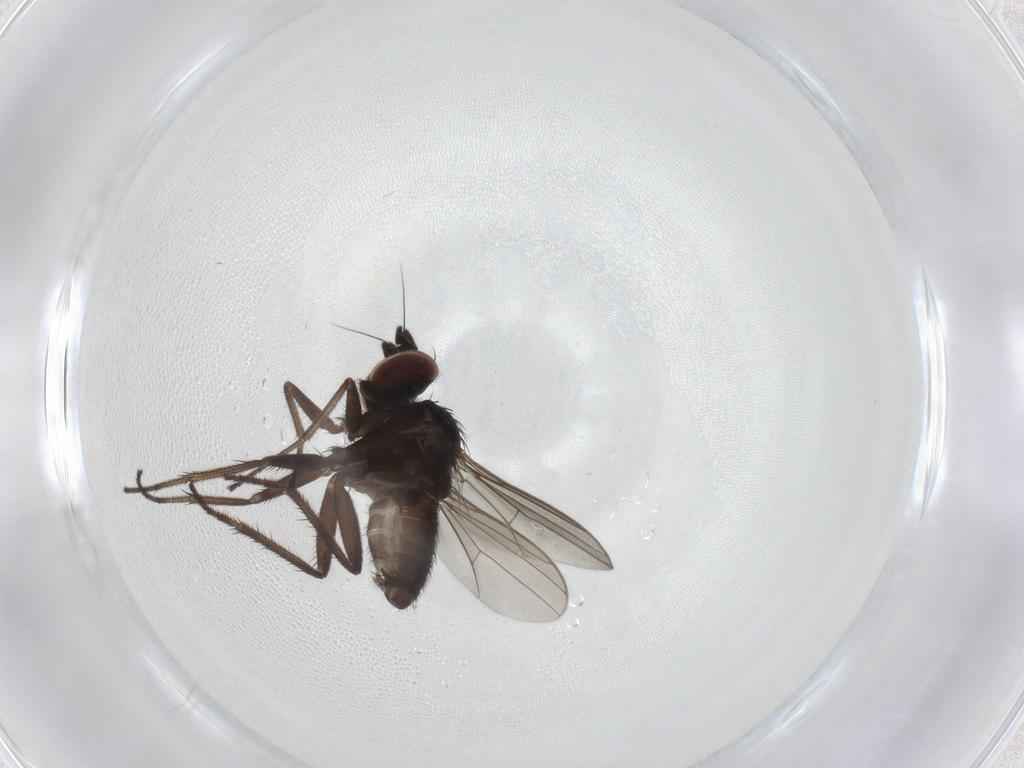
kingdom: Animalia
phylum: Arthropoda
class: Insecta
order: Diptera
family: Dolichopodidae
